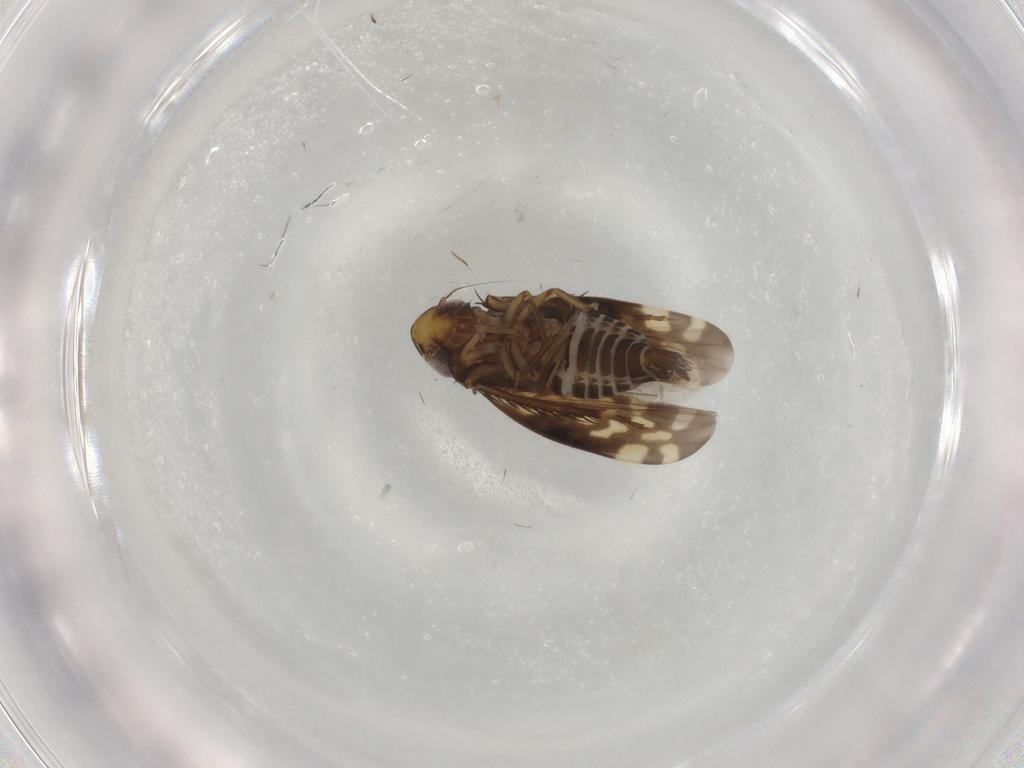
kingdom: Animalia
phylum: Arthropoda
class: Insecta
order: Hemiptera
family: Cicadellidae
